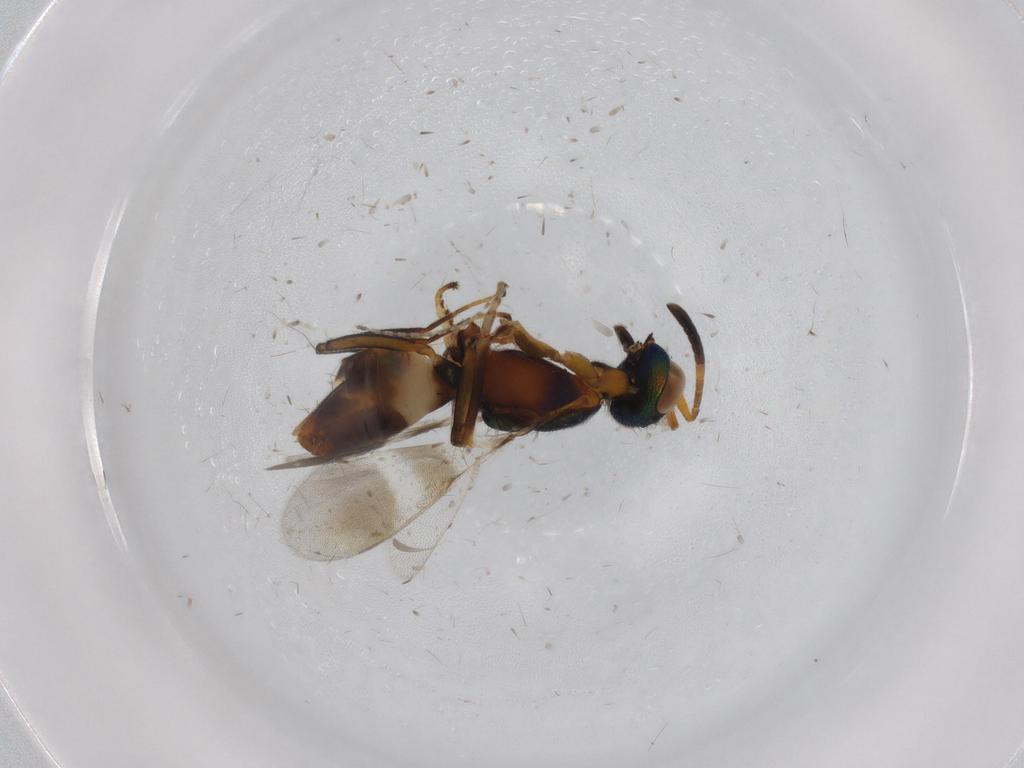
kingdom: Animalia
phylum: Arthropoda
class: Insecta
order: Hymenoptera
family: Eupelmidae
